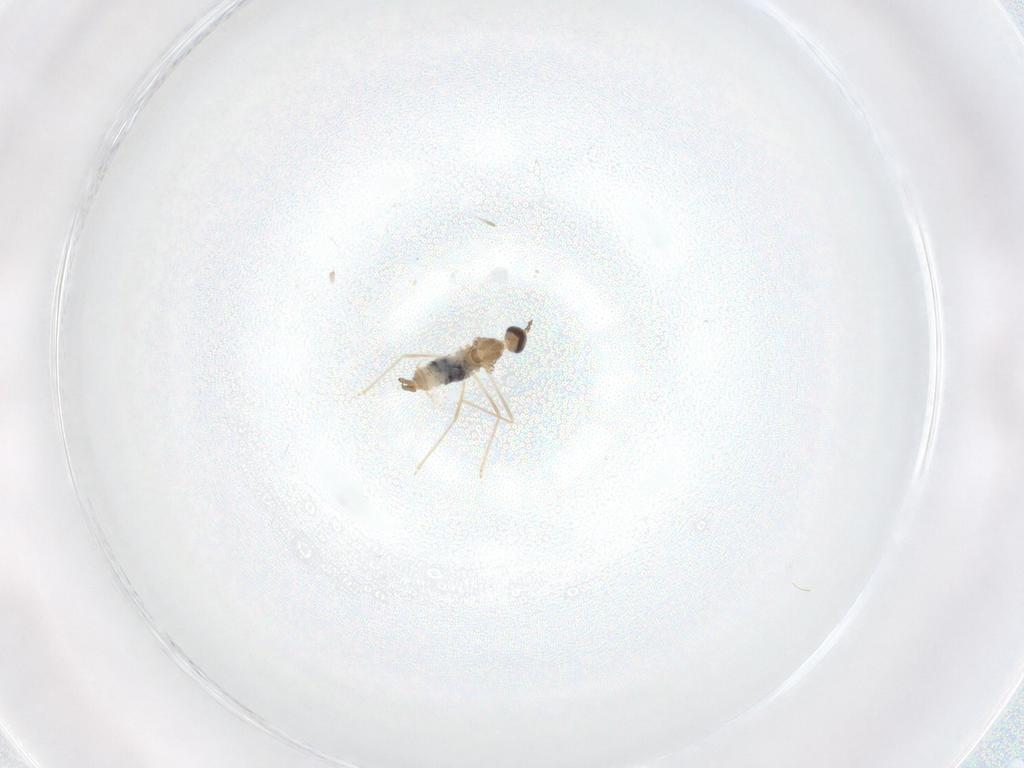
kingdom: Animalia
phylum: Arthropoda
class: Insecta
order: Diptera
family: Cecidomyiidae
